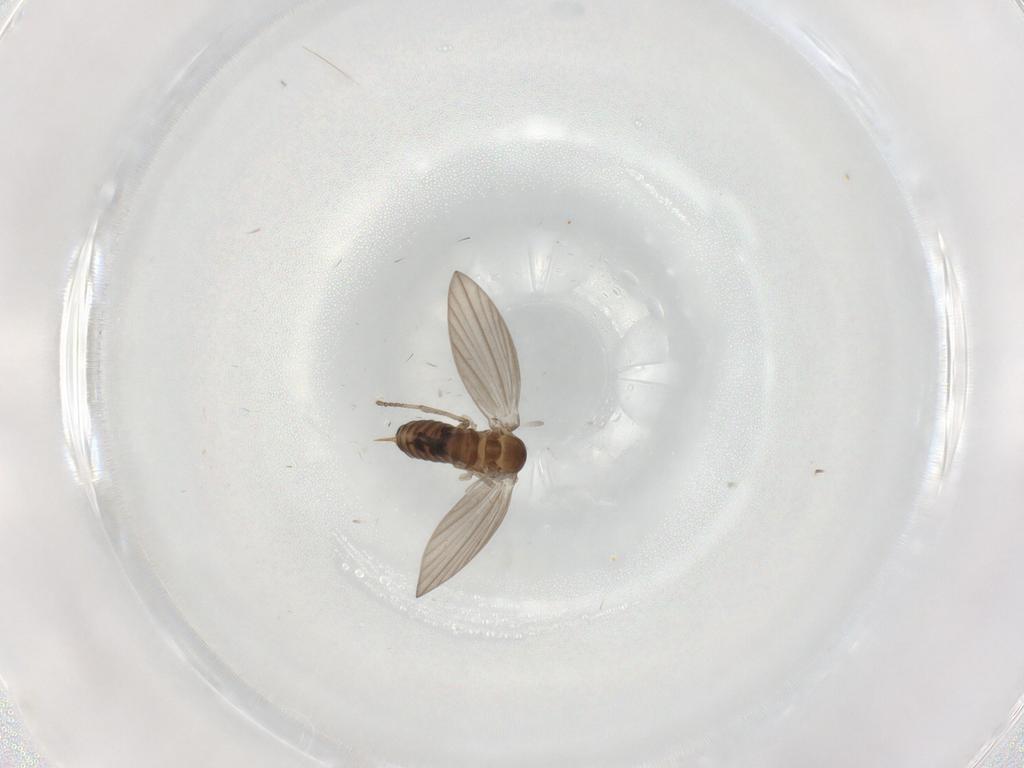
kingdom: Animalia
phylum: Arthropoda
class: Insecta
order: Diptera
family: Psychodidae
